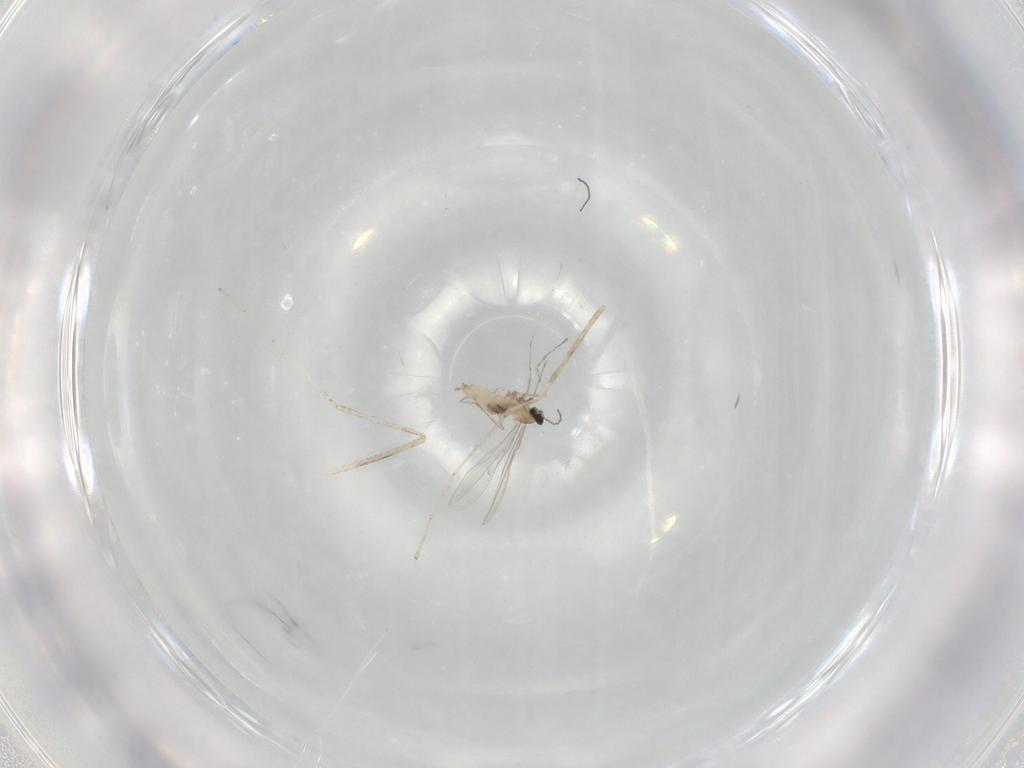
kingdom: Animalia
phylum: Arthropoda
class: Insecta
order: Diptera
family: Cecidomyiidae
